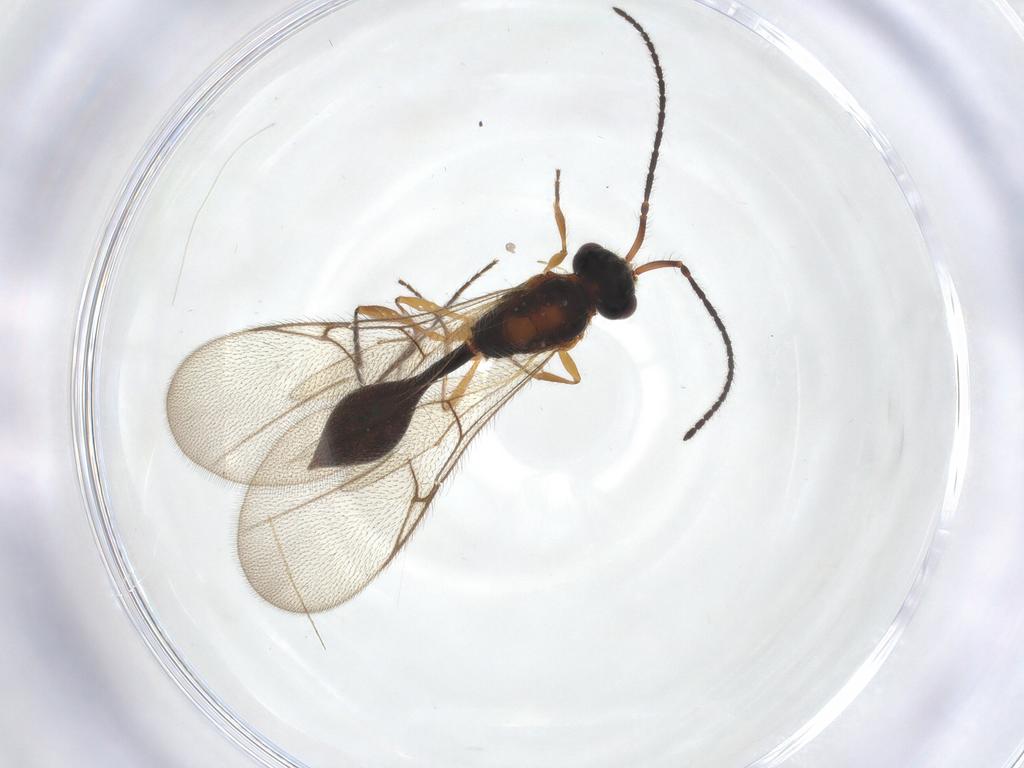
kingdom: Animalia
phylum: Arthropoda
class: Insecta
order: Hymenoptera
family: Diapriidae
